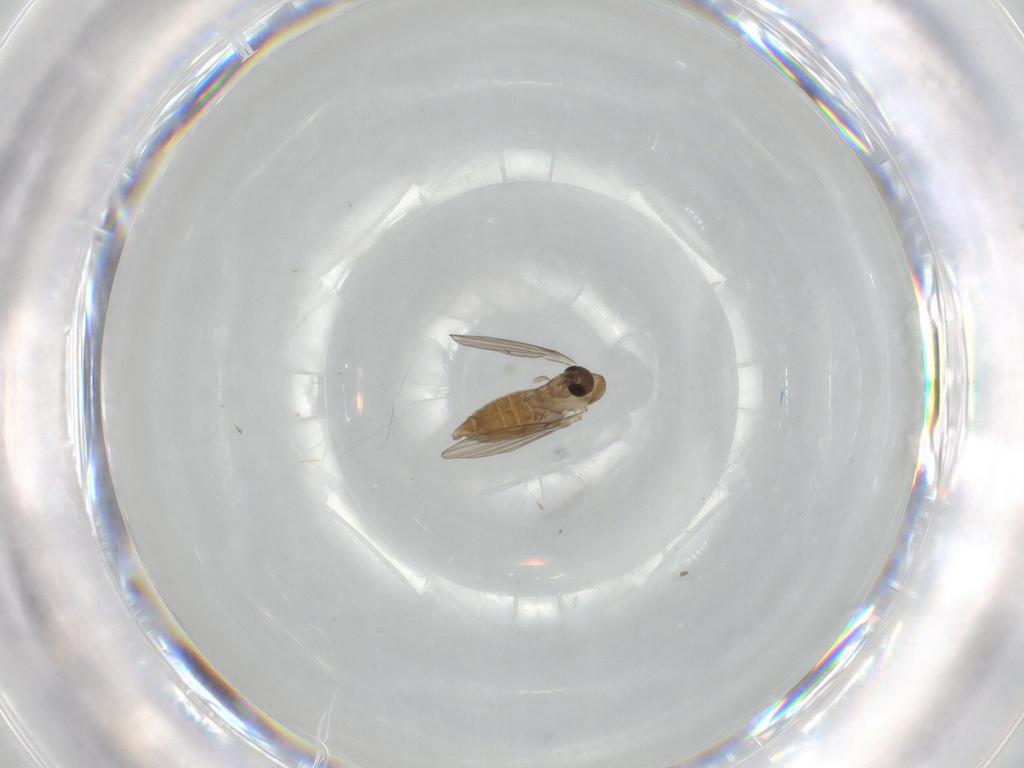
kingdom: Animalia
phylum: Arthropoda
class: Insecta
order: Diptera
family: Psychodidae
